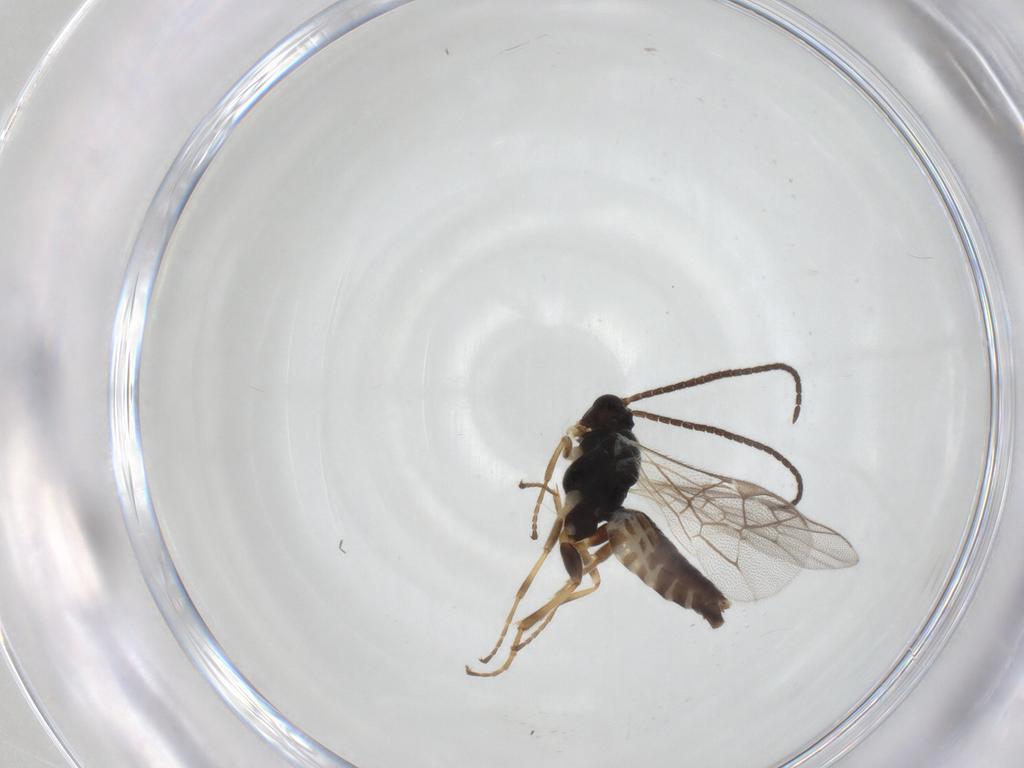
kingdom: Animalia
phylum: Arthropoda
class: Insecta
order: Hymenoptera
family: Ichneumonidae
